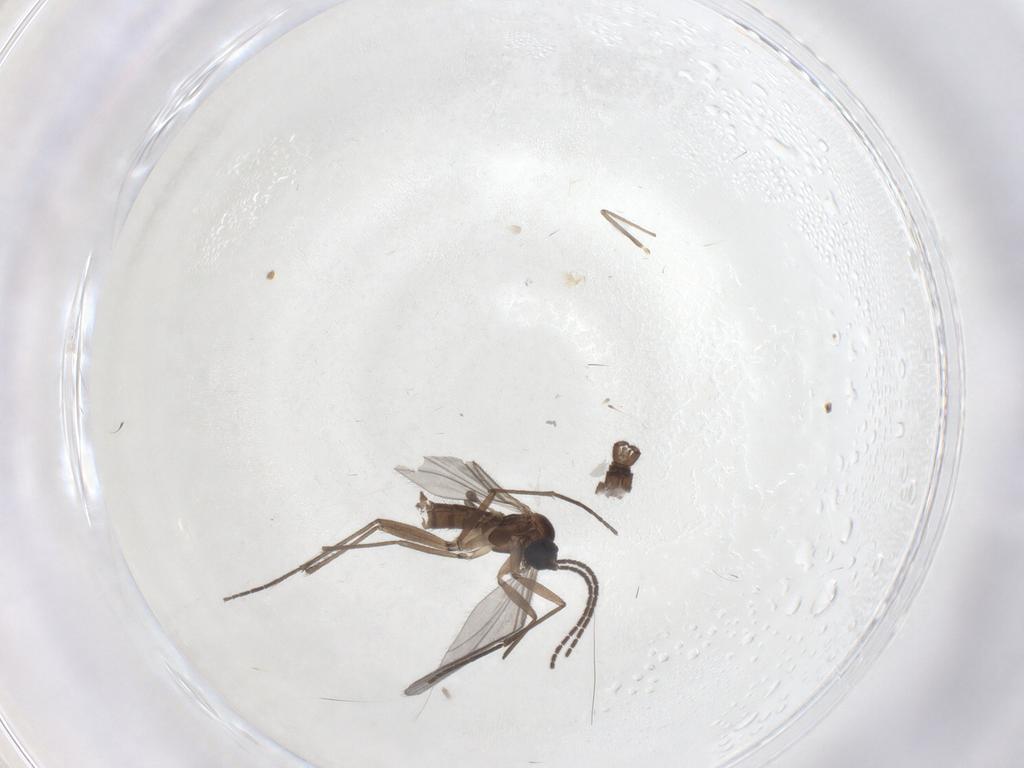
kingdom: Animalia
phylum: Arthropoda
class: Insecta
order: Diptera
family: Sciaridae
